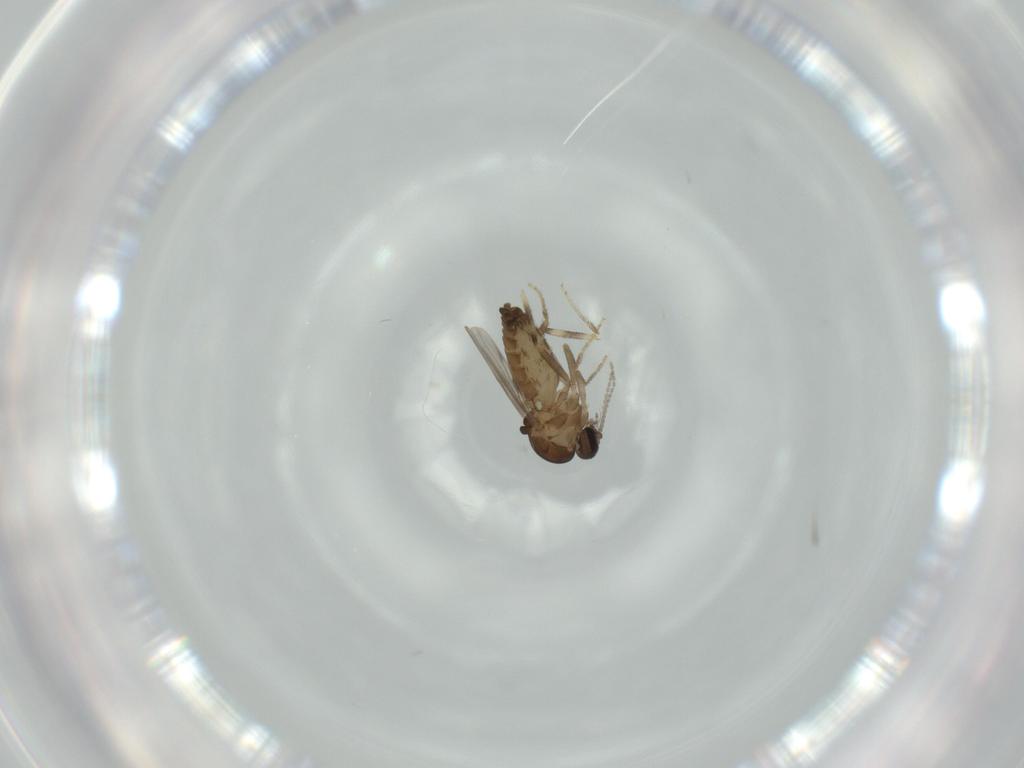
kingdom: Animalia
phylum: Arthropoda
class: Insecta
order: Diptera
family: Ceratopogonidae
